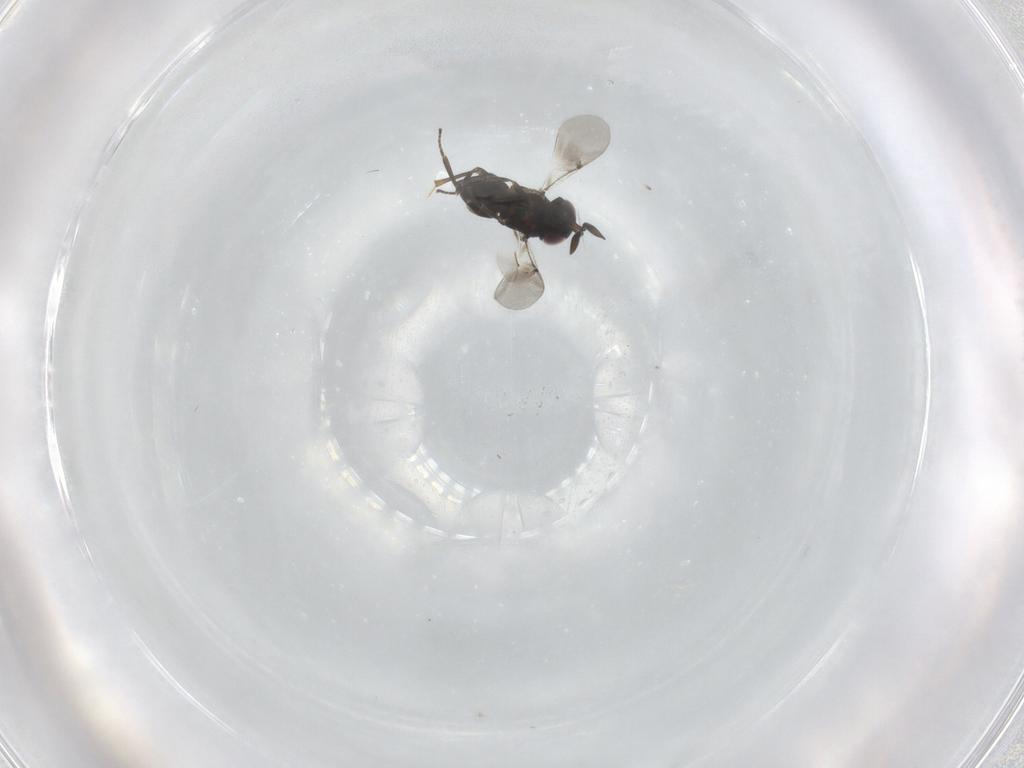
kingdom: Animalia
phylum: Arthropoda
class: Insecta
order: Hymenoptera
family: Encyrtidae
